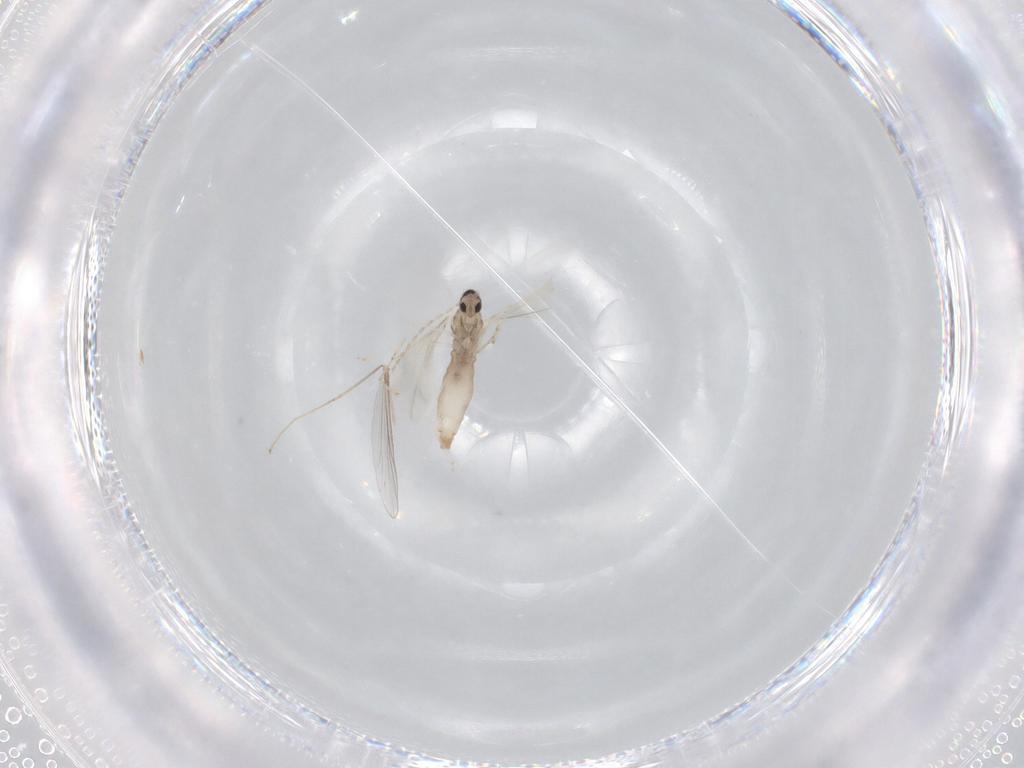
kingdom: Animalia
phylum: Arthropoda
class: Insecta
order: Diptera
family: Cecidomyiidae
